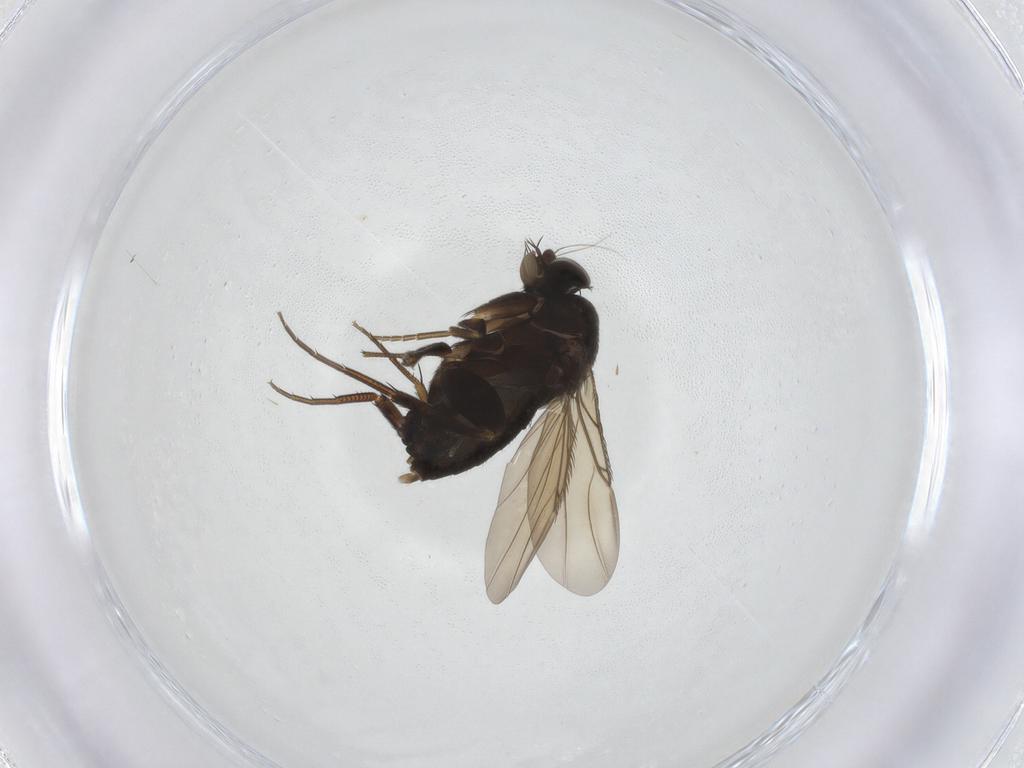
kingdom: Animalia
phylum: Arthropoda
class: Insecta
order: Diptera
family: Phoridae
